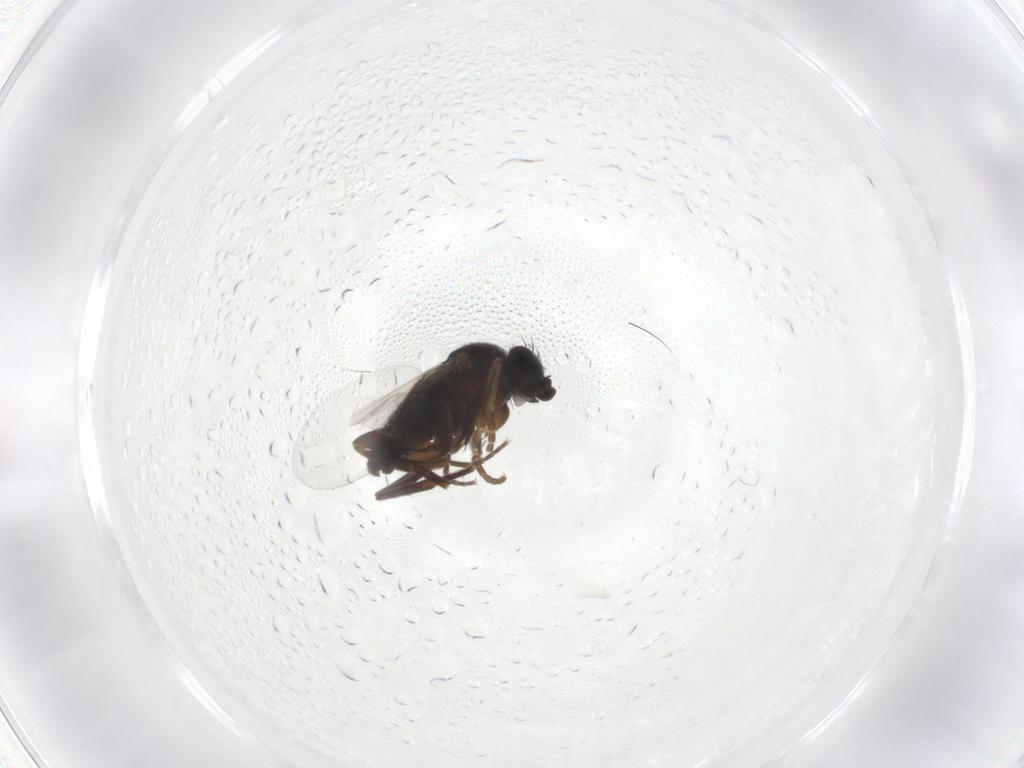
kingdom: Animalia
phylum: Arthropoda
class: Insecta
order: Diptera
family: Phoridae
